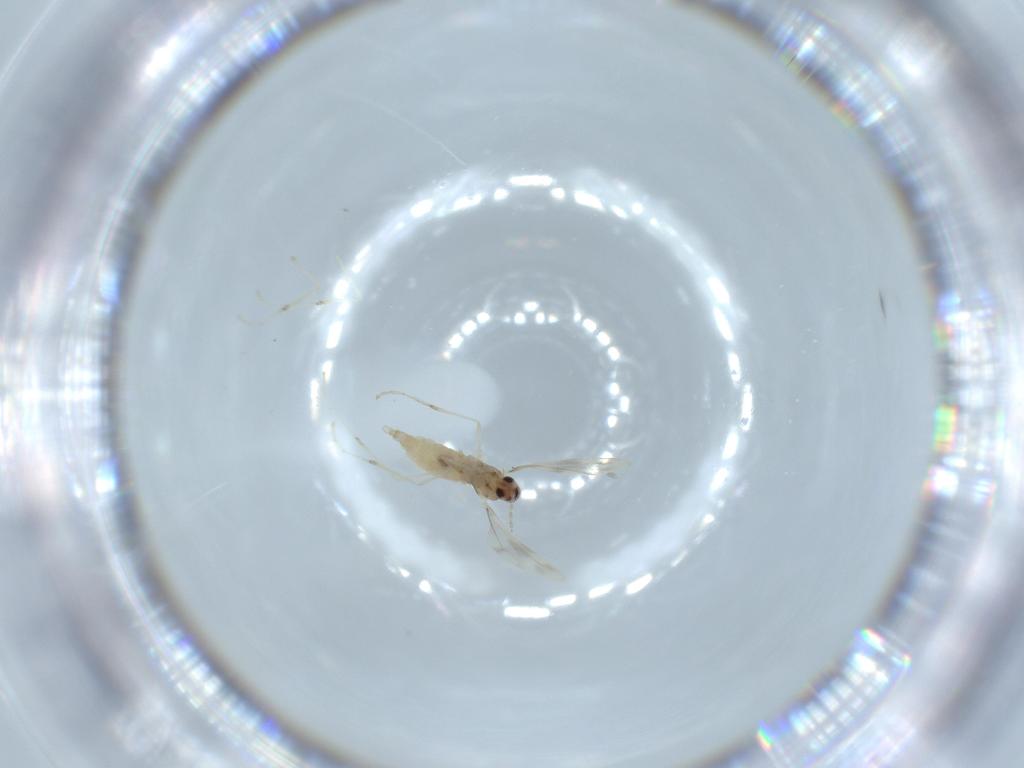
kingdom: Animalia
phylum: Arthropoda
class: Insecta
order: Diptera
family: Cecidomyiidae
